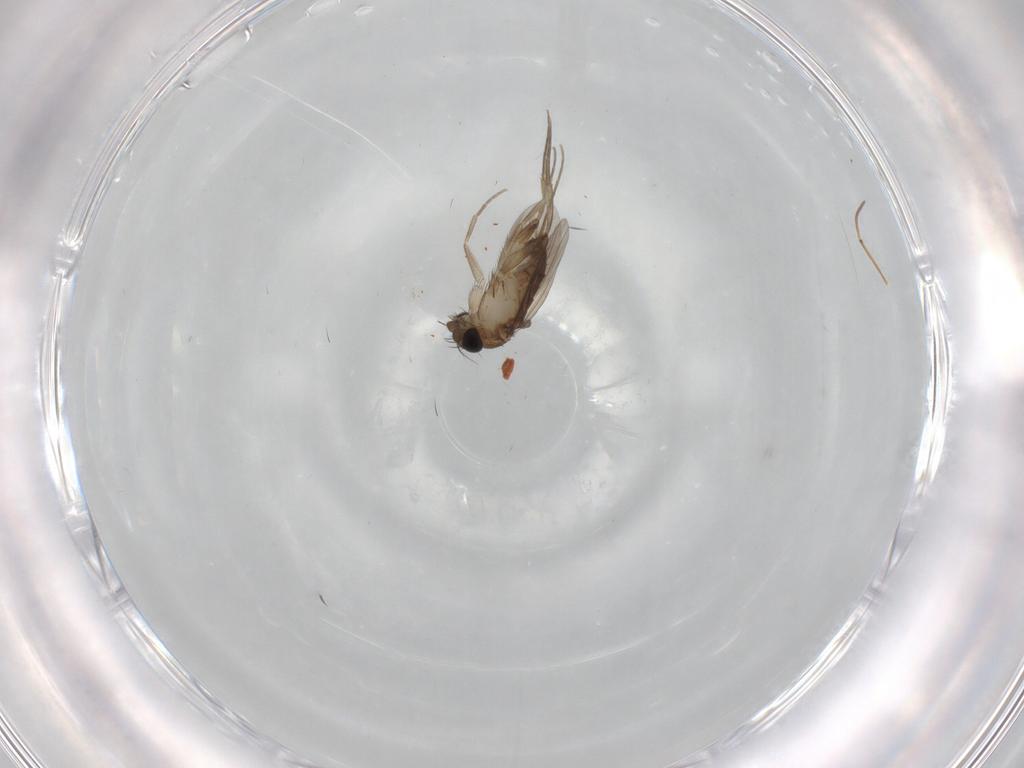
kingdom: Animalia
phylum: Arthropoda
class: Insecta
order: Diptera
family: Phoridae
